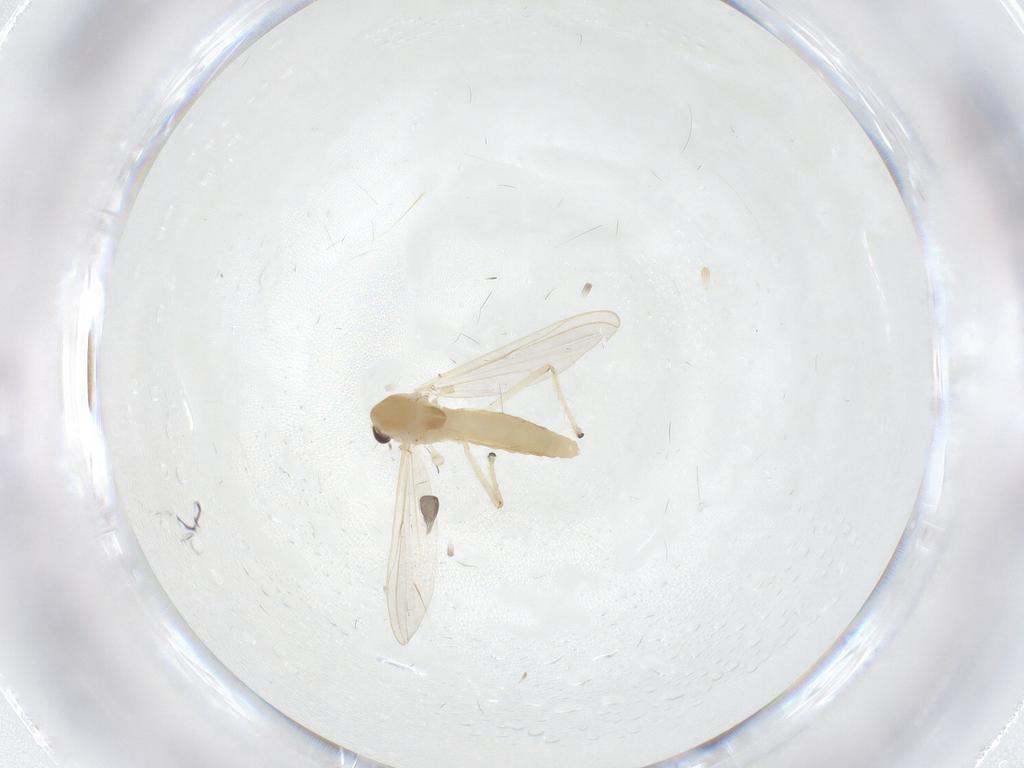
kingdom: Animalia
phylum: Arthropoda
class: Insecta
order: Diptera
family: Chironomidae
